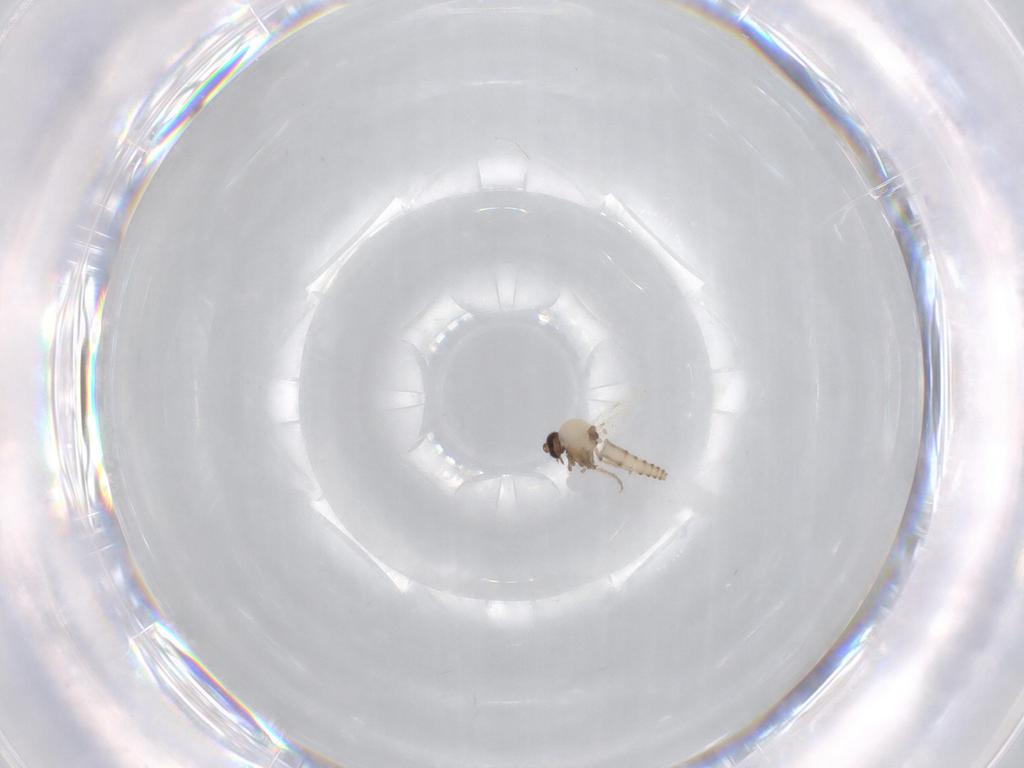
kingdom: Animalia
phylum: Arthropoda
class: Insecta
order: Diptera
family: Ceratopogonidae
